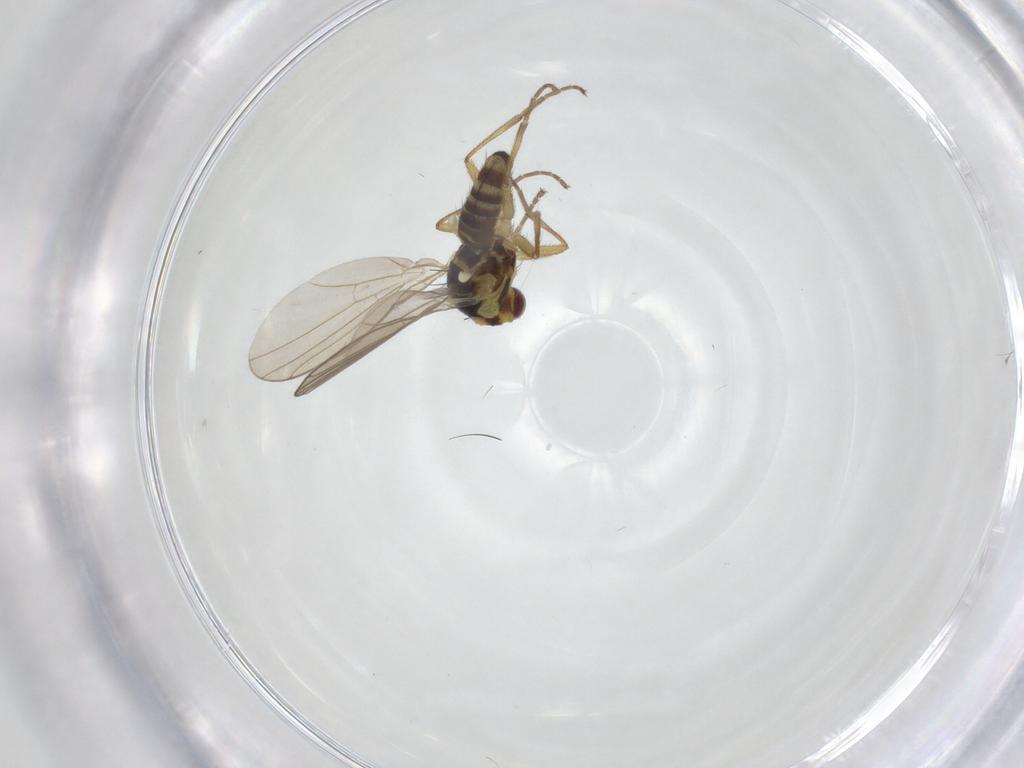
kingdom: Animalia
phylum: Arthropoda
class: Insecta
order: Diptera
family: Agromyzidae
